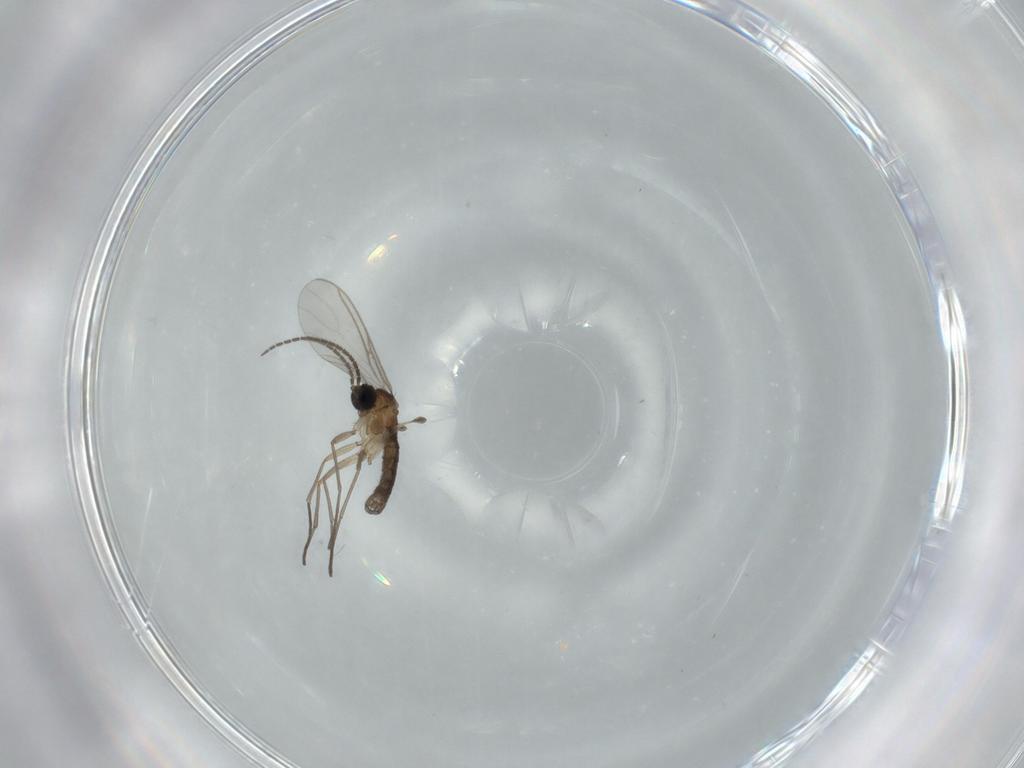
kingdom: Animalia
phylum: Arthropoda
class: Insecta
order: Diptera
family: Sciaridae
